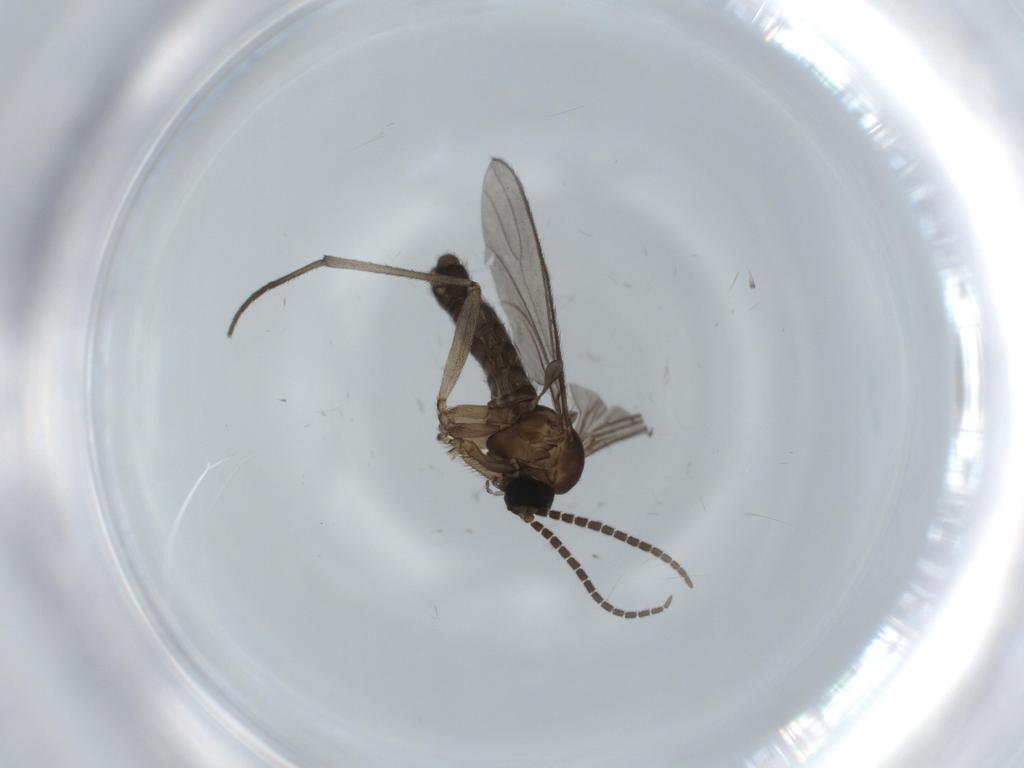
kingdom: Animalia
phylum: Arthropoda
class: Insecta
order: Diptera
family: Sciaridae
